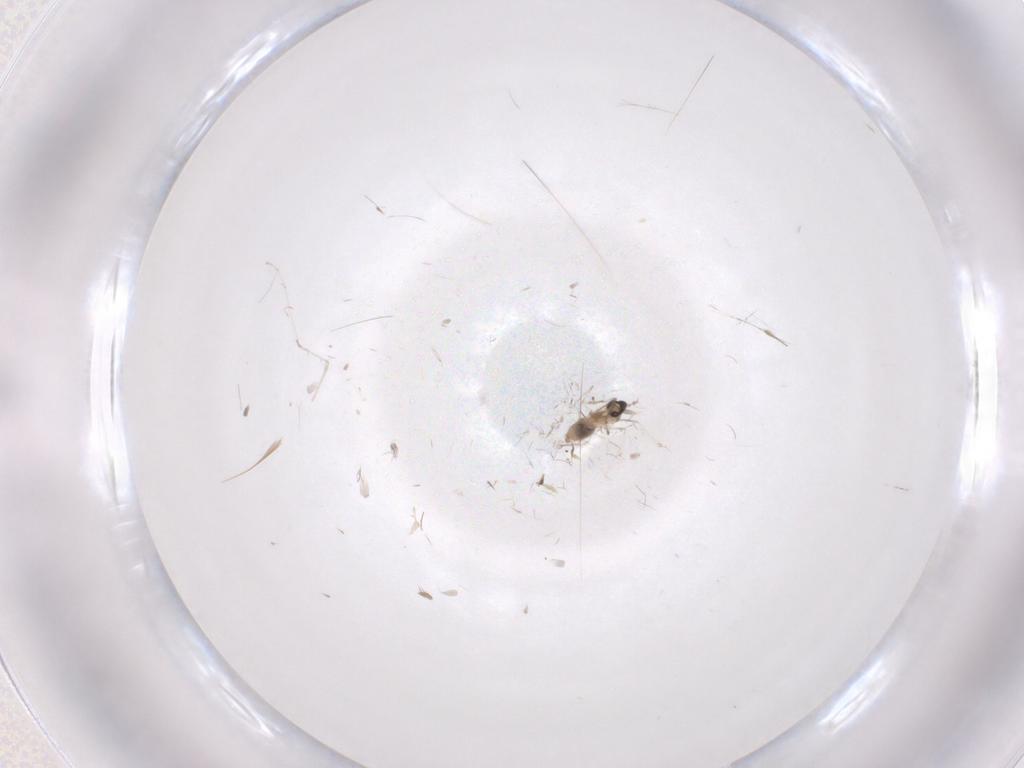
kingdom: Animalia
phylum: Arthropoda
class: Insecta
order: Diptera
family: Cecidomyiidae
